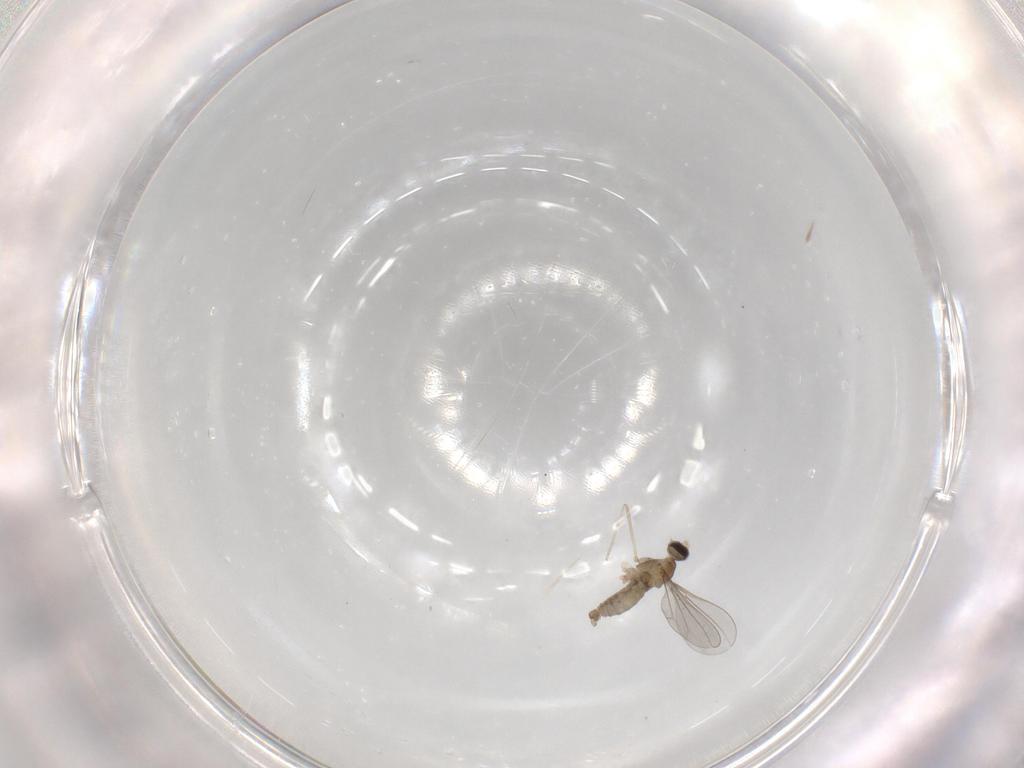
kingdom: Animalia
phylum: Arthropoda
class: Insecta
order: Diptera
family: Cecidomyiidae
